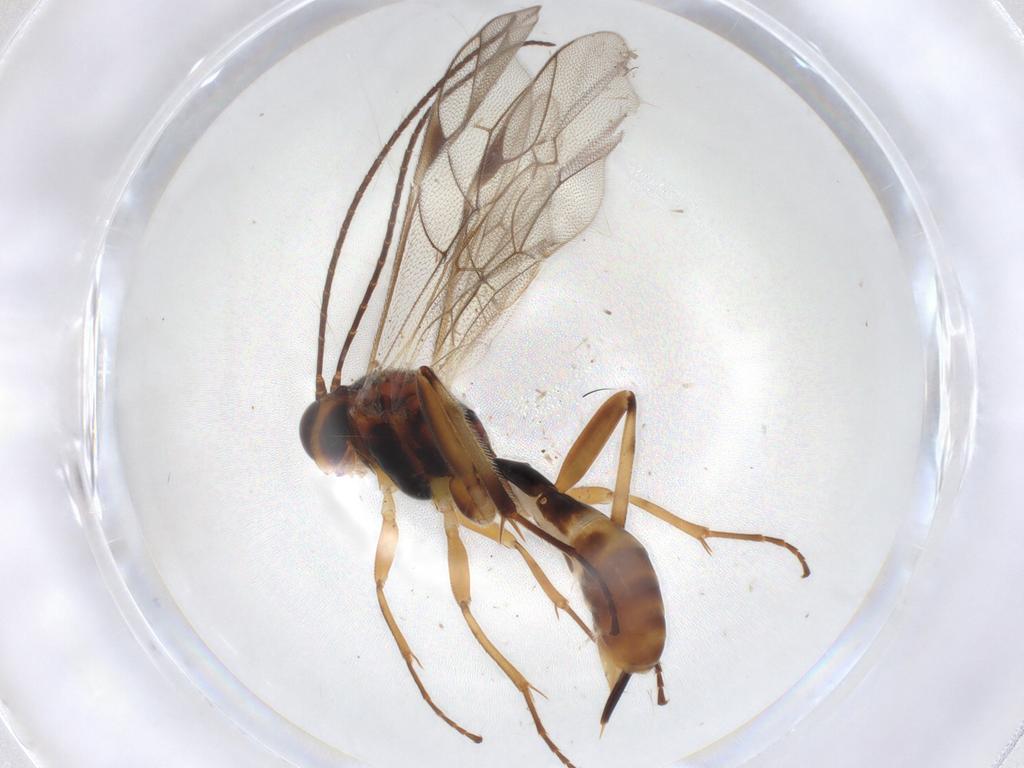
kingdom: Animalia
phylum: Arthropoda
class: Insecta
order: Hymenoptera
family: Ichneumonidae
